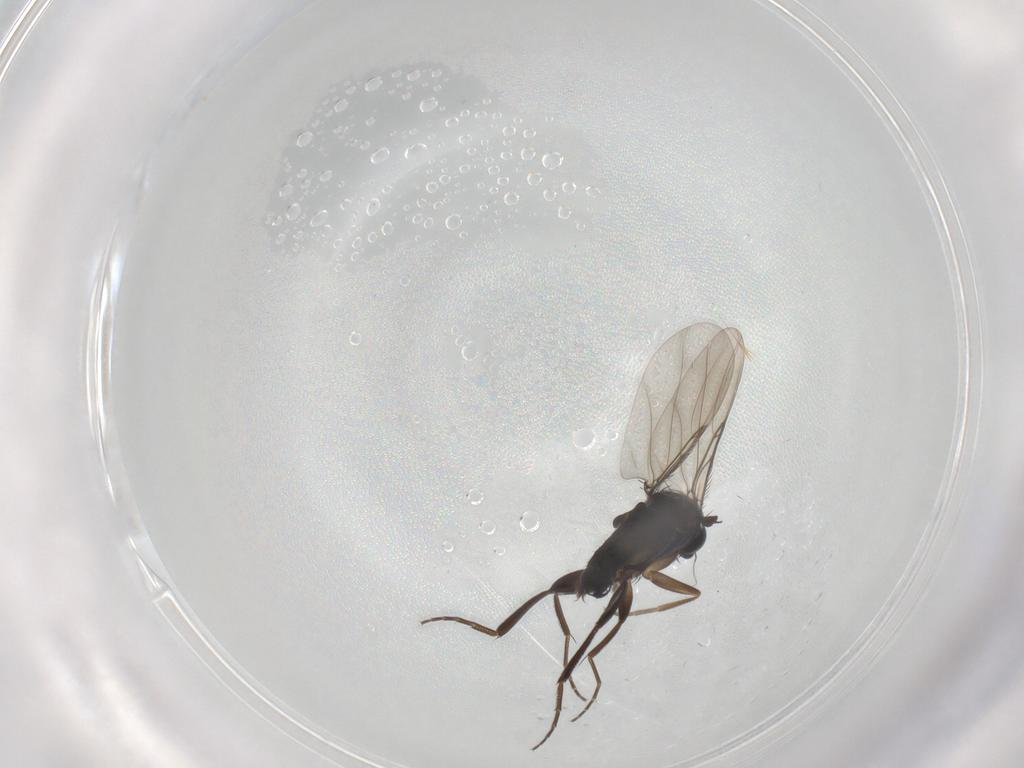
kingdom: Animalia
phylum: Arthropoda
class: Insecta
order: Diptera
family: Phoridae
